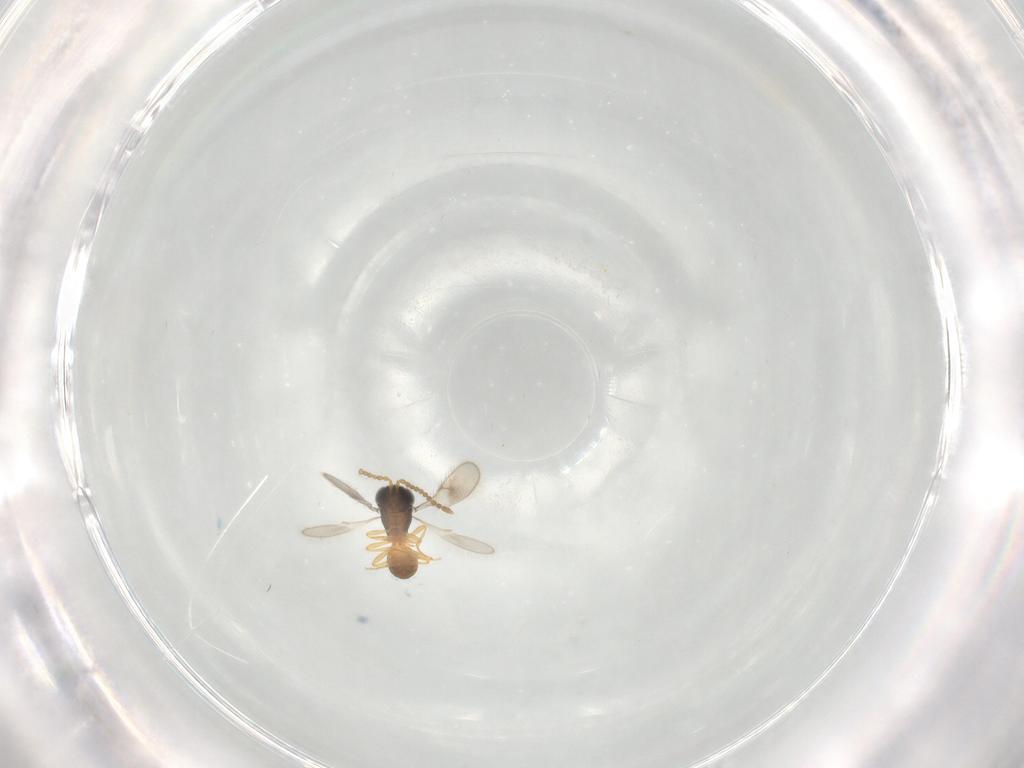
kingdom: Animalia
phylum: Arthropoda
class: Insecta
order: Hymenoptera
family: Scelionidae
